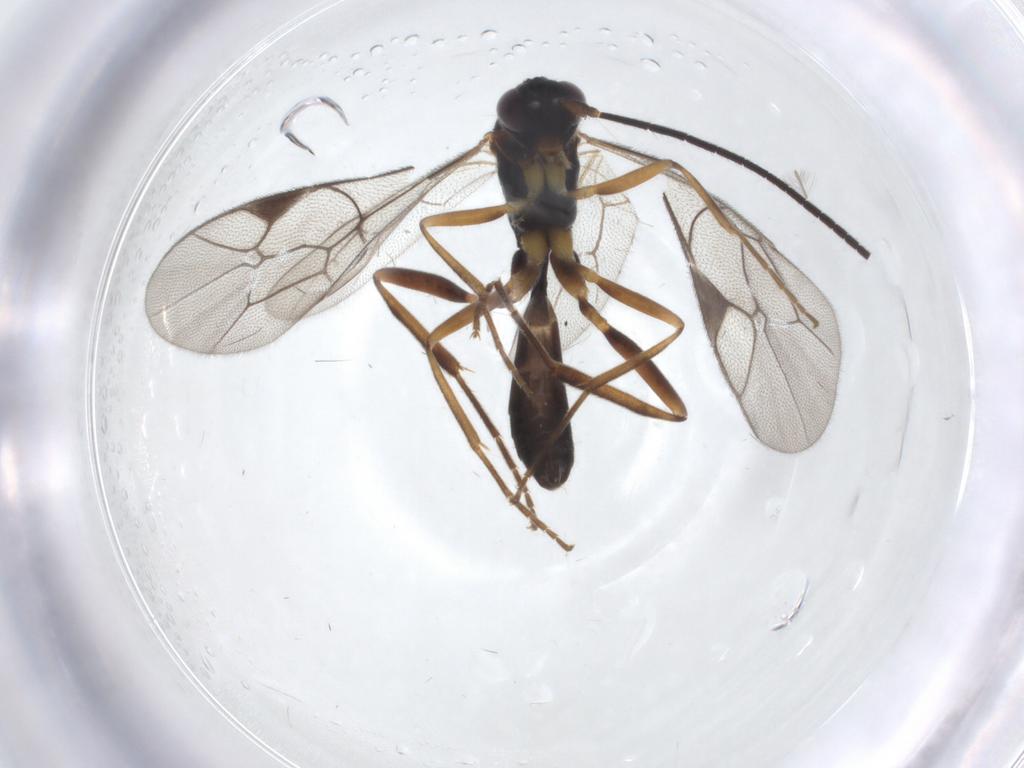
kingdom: Animalia
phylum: Arthropoda
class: Insecta
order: Hymenoptera
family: Ichneumonidae
